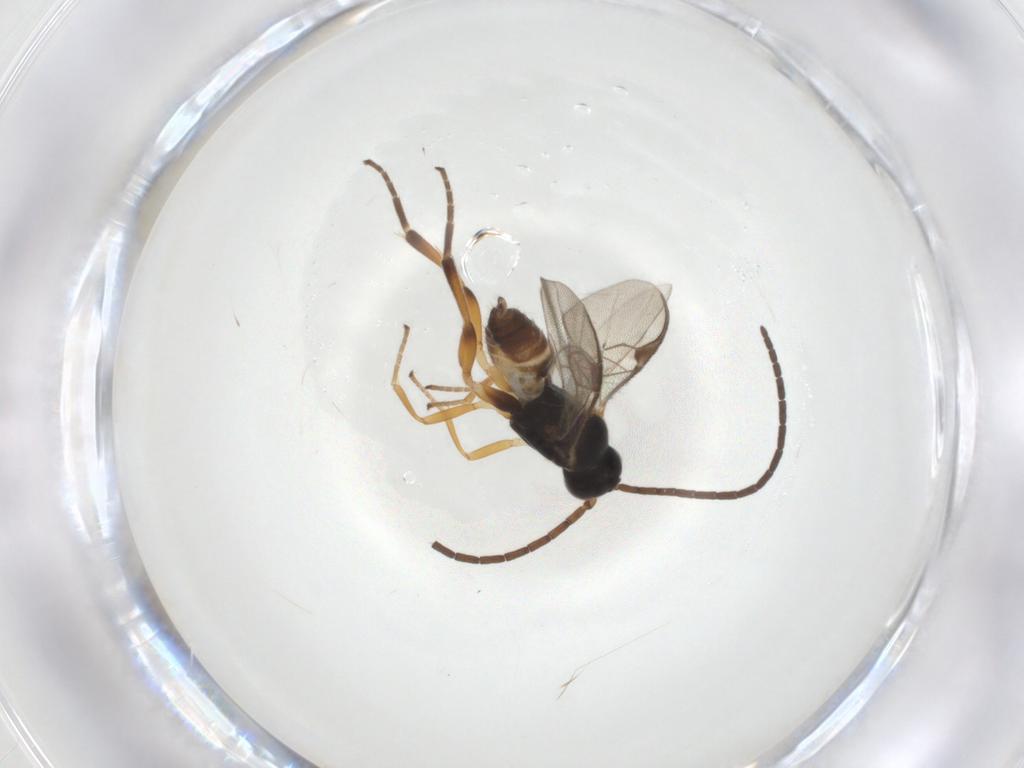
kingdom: Animalia
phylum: Arthropoda
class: Insecta
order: Hymenoptera
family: Braconidae
